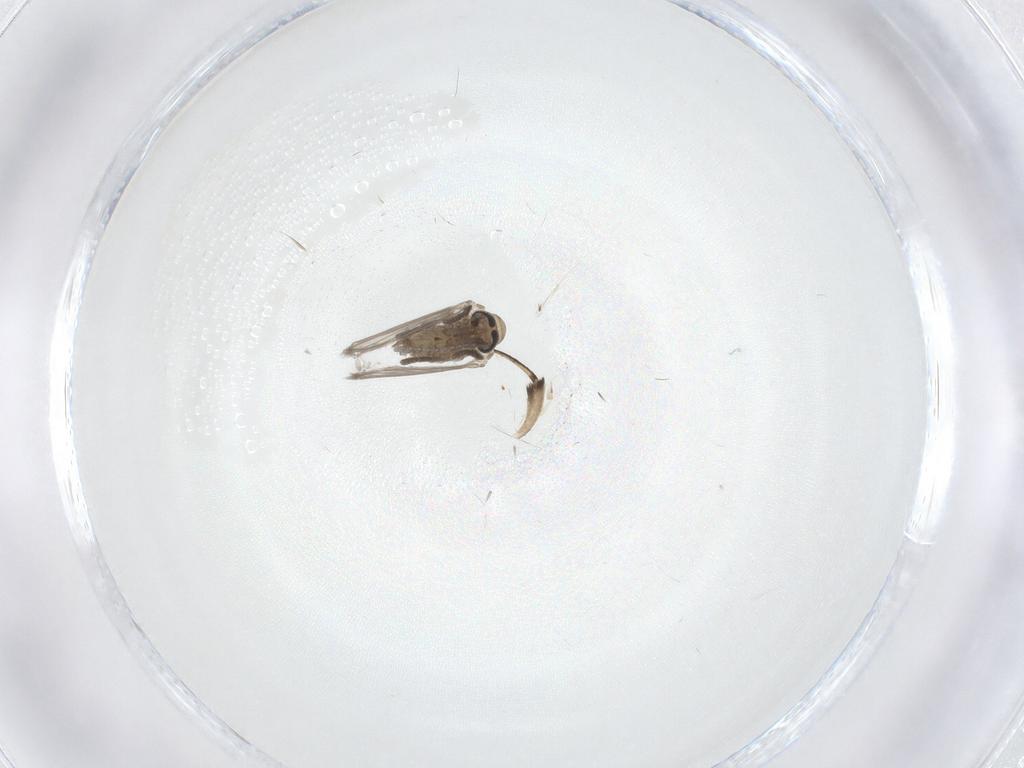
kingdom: Animalia
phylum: Arthropoda
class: Insecta
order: Diptera
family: Psychodidae
